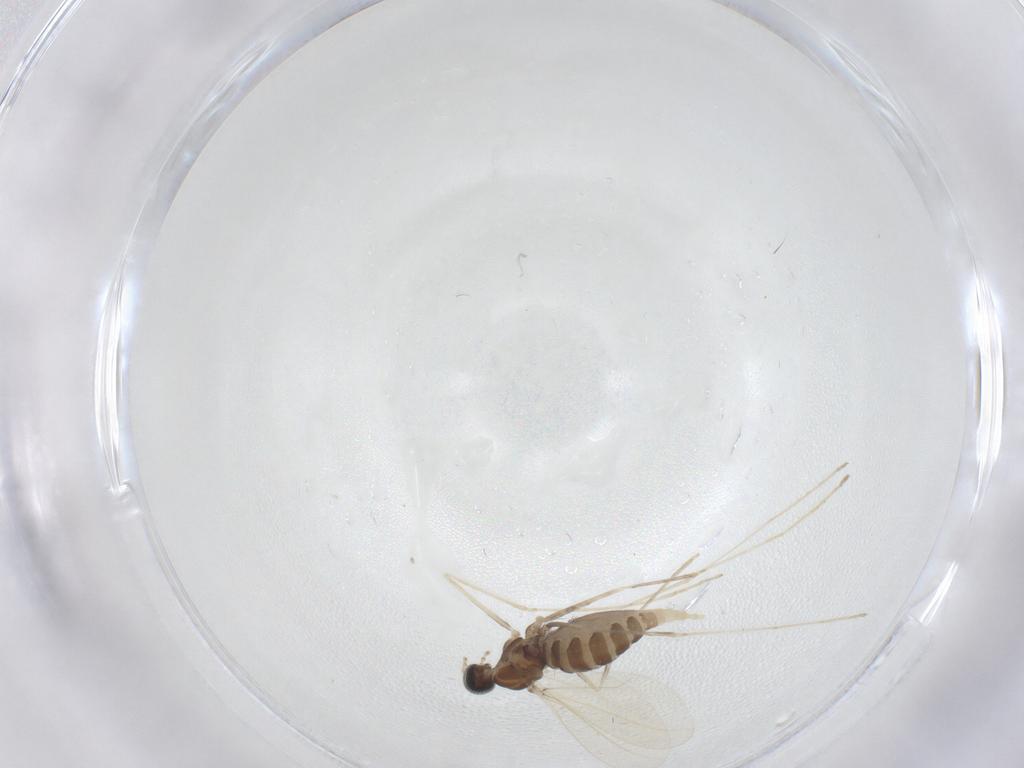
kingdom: Animalia
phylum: Arthropoda
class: Insecta
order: Diptera
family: Cecidomyiidae
